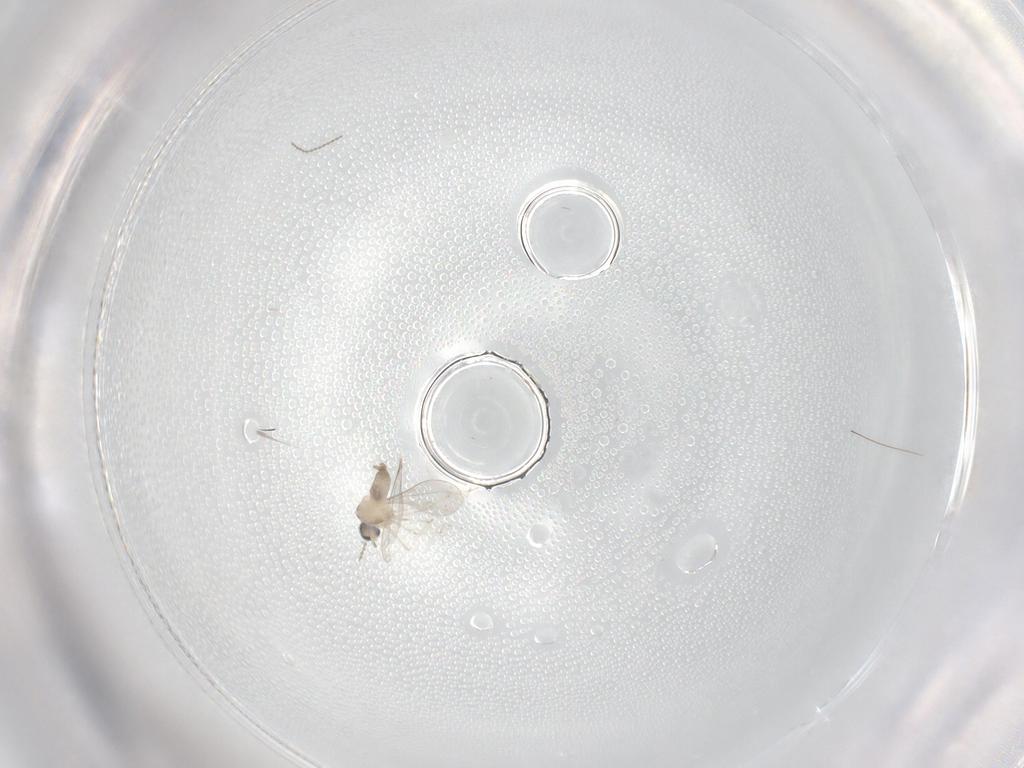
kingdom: Animalia
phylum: Arthropoda
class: Insecta
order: Diptera
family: Cecidomyiidae
